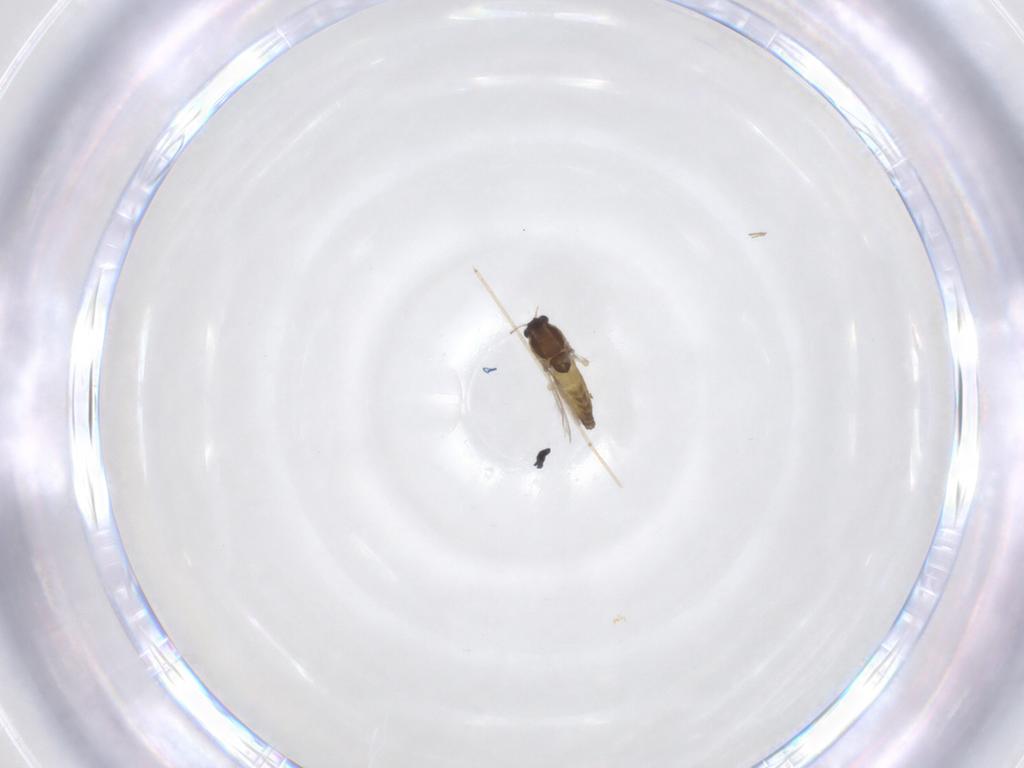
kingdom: Animalia
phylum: Arthropoda
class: Insecta
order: Diptera
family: Chironomidae
